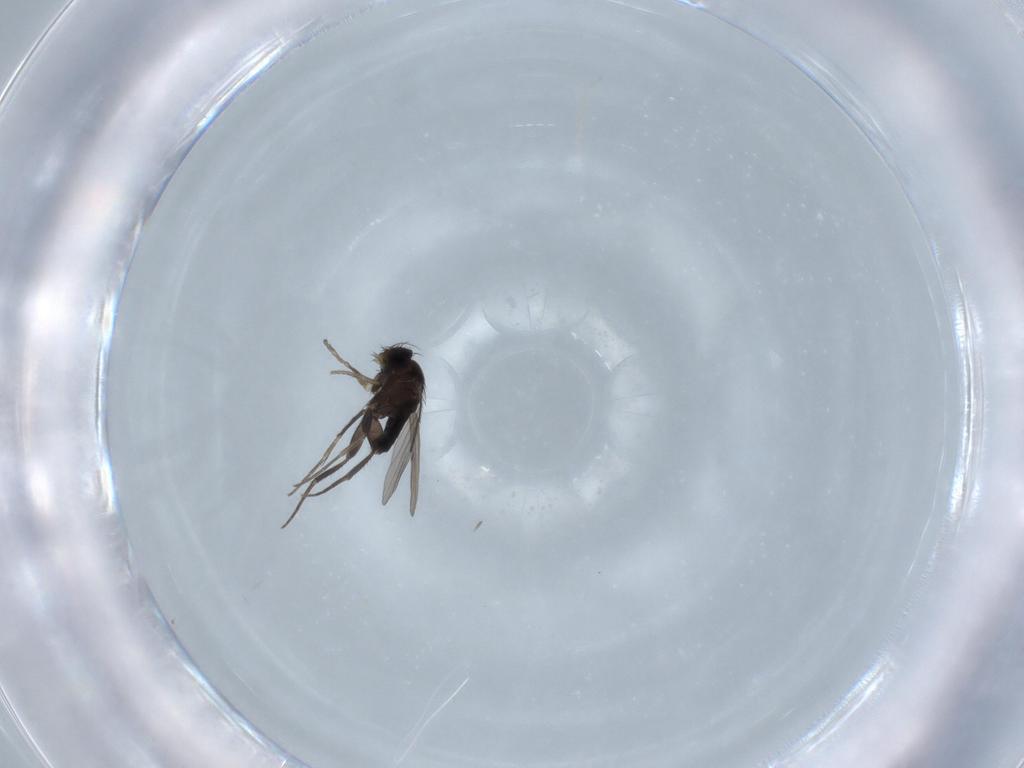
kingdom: Animalia
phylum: Arthropoda
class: Insecta
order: Diptera
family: Phoridae
